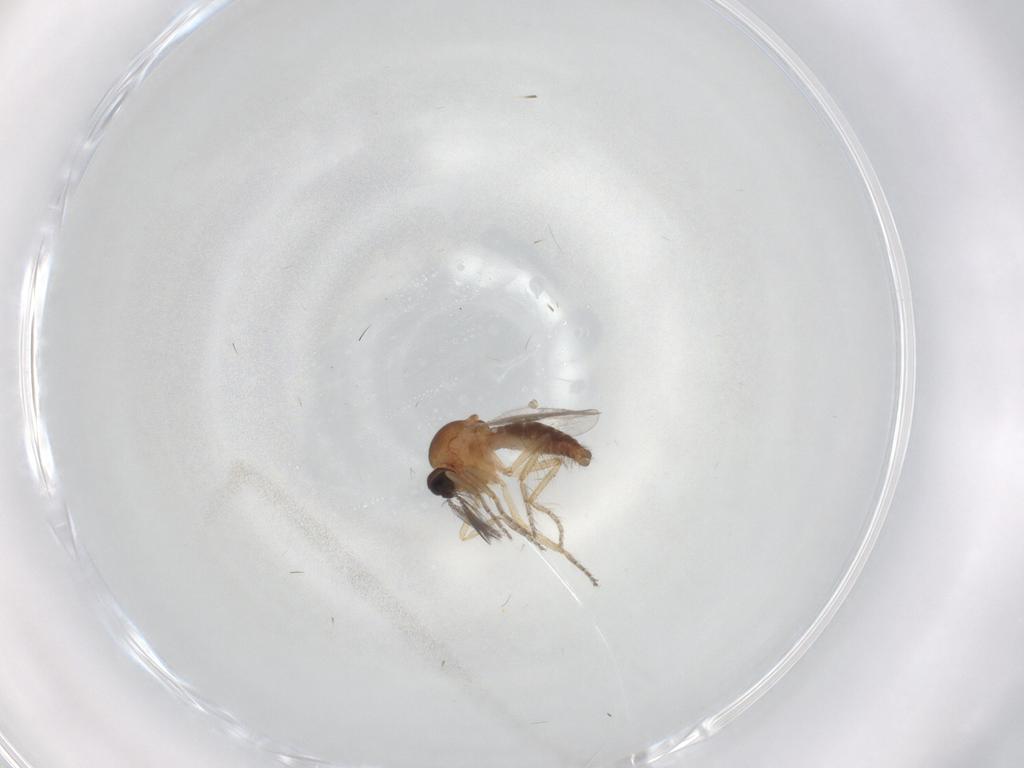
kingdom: Animalia
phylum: Arthropoda
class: Insecta
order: Diptera
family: Ceratopogonidae
